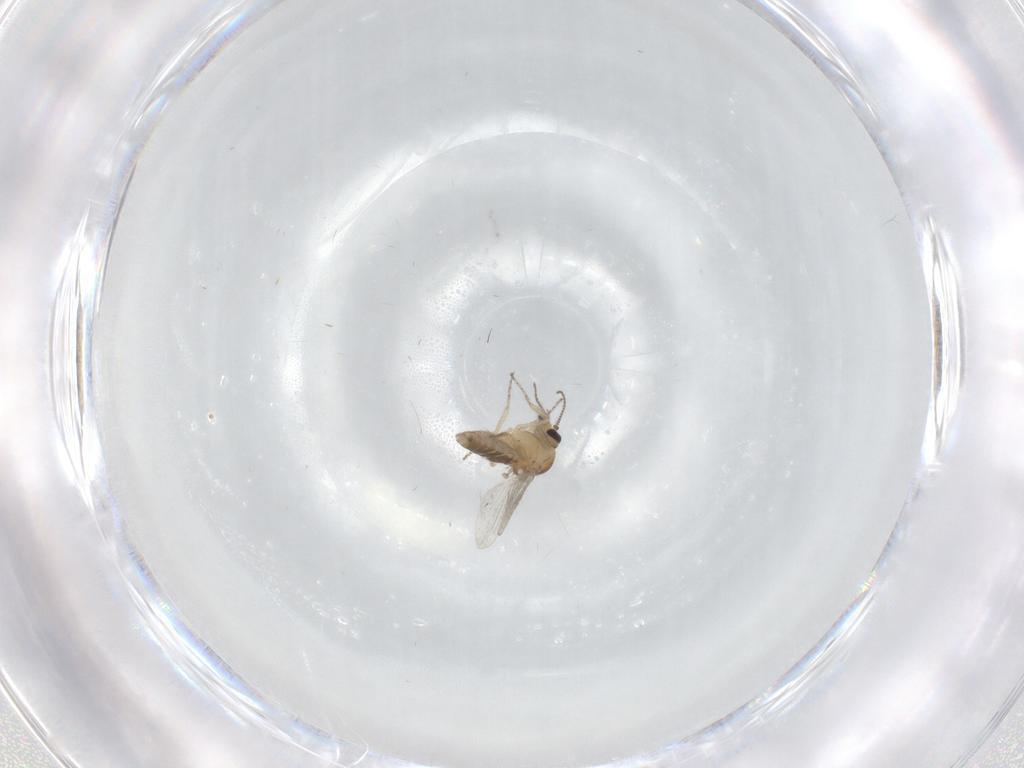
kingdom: Animalia
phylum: Arthropoda
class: Insecta
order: Diptera
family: Ceratopogonidae
